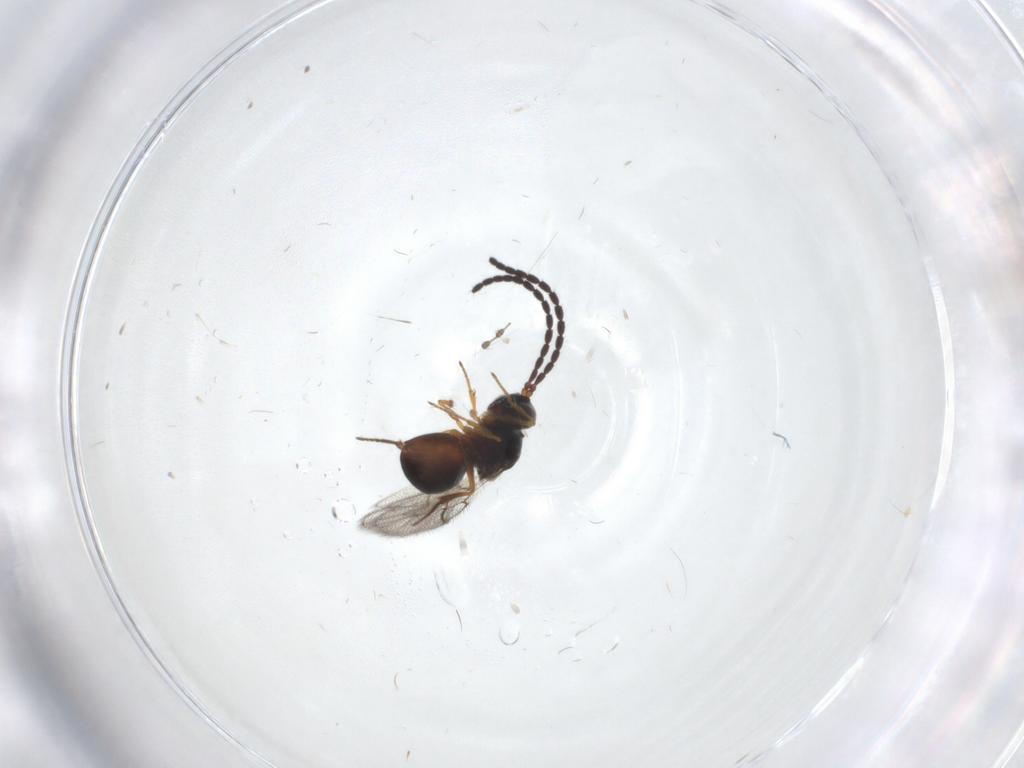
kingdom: Animalia
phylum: Arthropoda
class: Insecta
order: Hymenoptera
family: Figitidae
